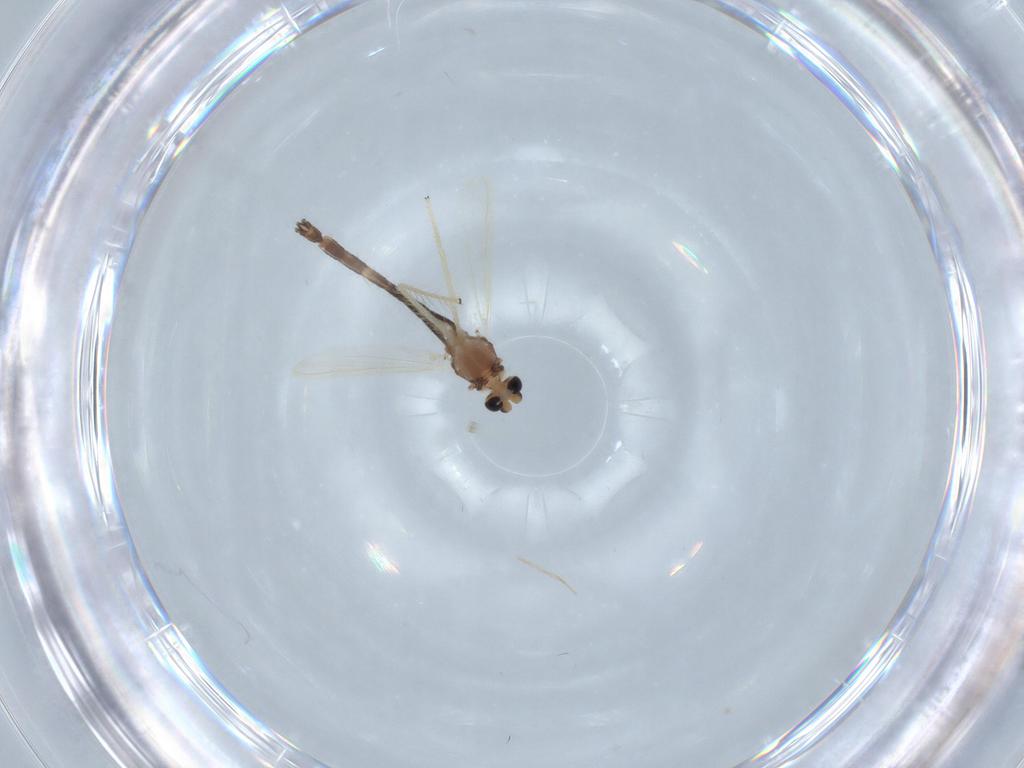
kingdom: Animalia
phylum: Arthropoda
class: Insecta
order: Diptera
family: Chironomidae
